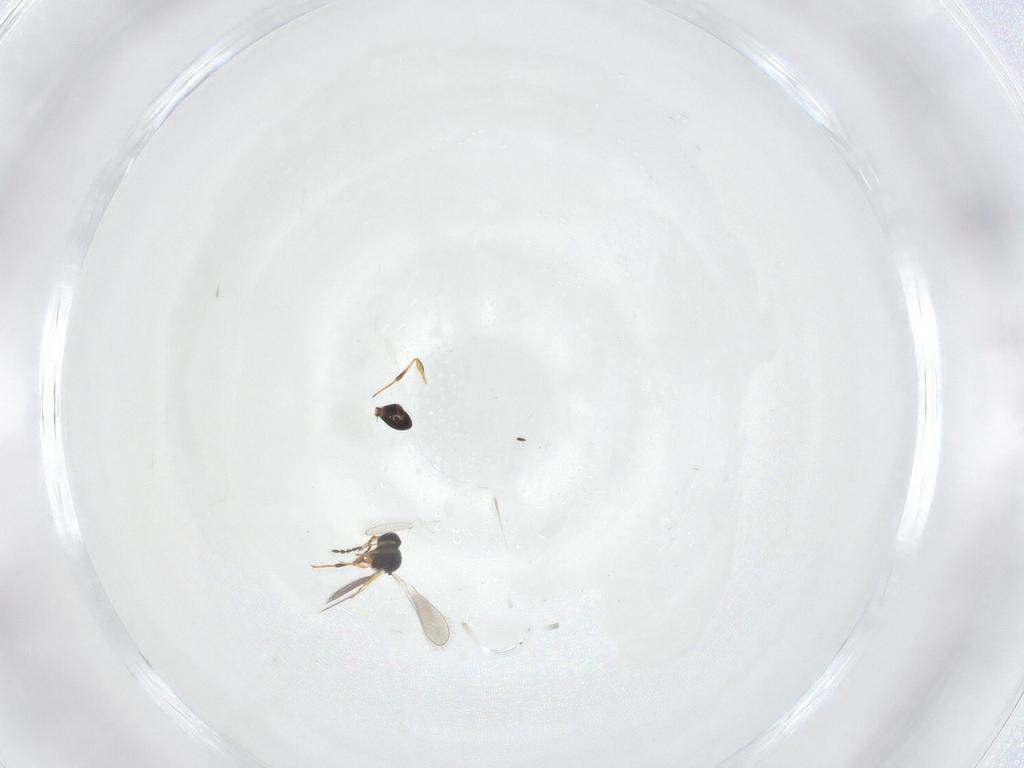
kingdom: Animalia
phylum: Arthropoda
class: Insecta
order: Hymenoptera
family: Platygastridae
